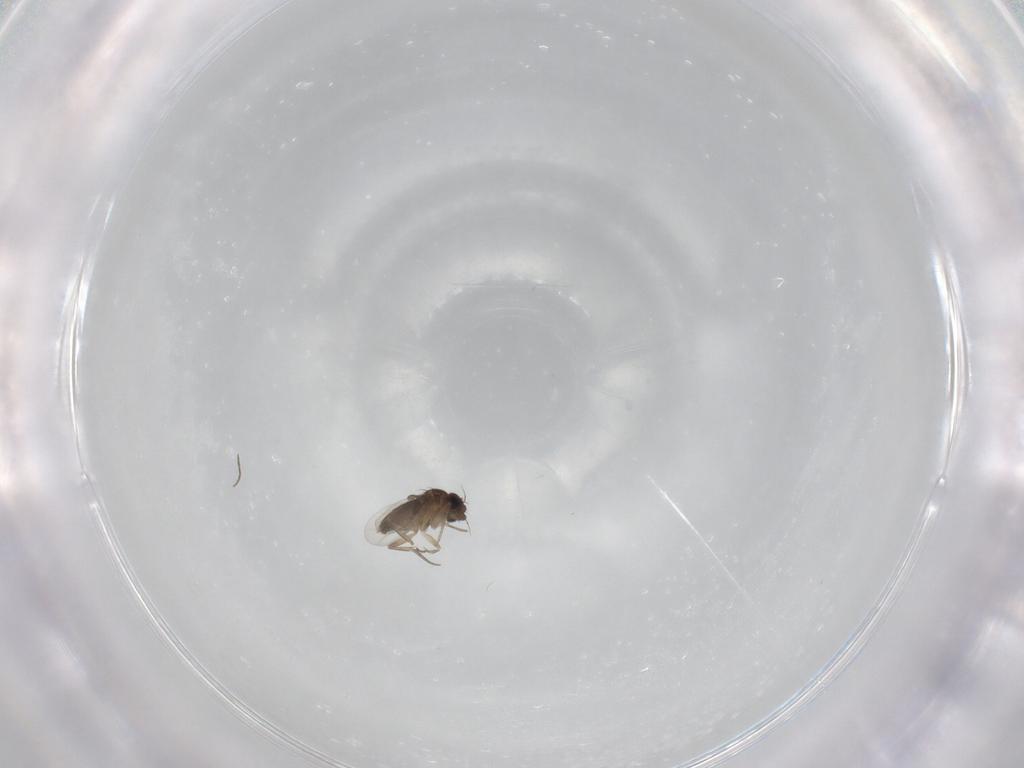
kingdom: Animalia
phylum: Arthropoda
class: Insecta
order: Diptera
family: Phoridae
